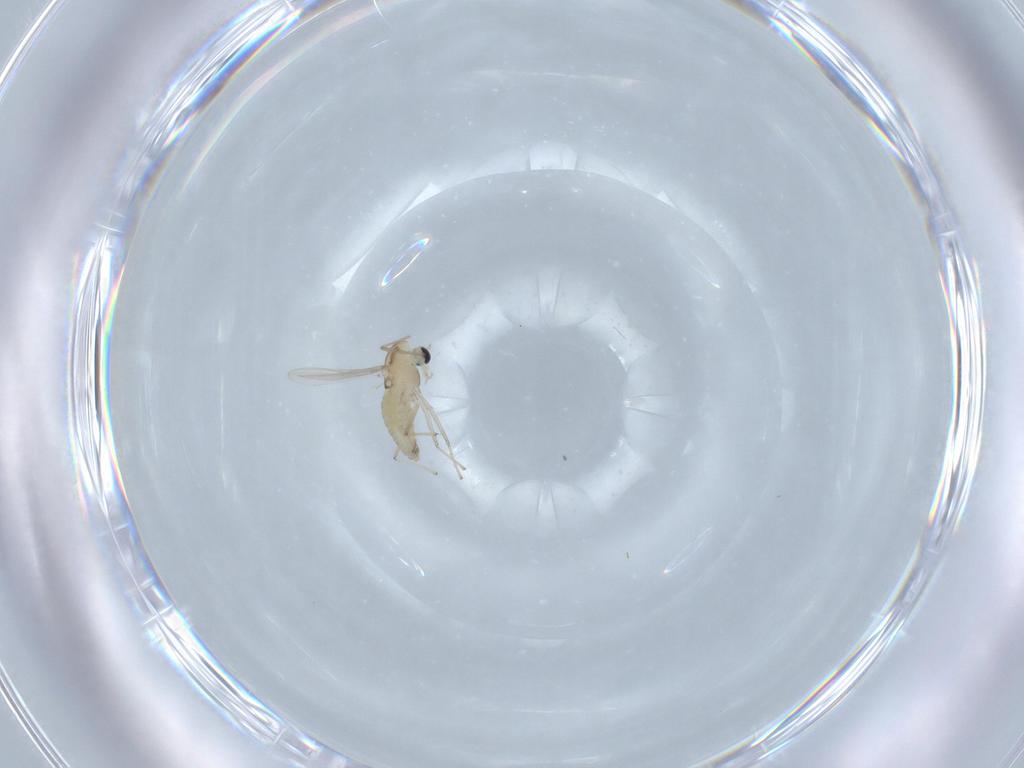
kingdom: Animalia
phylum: Arthropoda
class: Insecta
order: Diptera
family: Chironomidae
